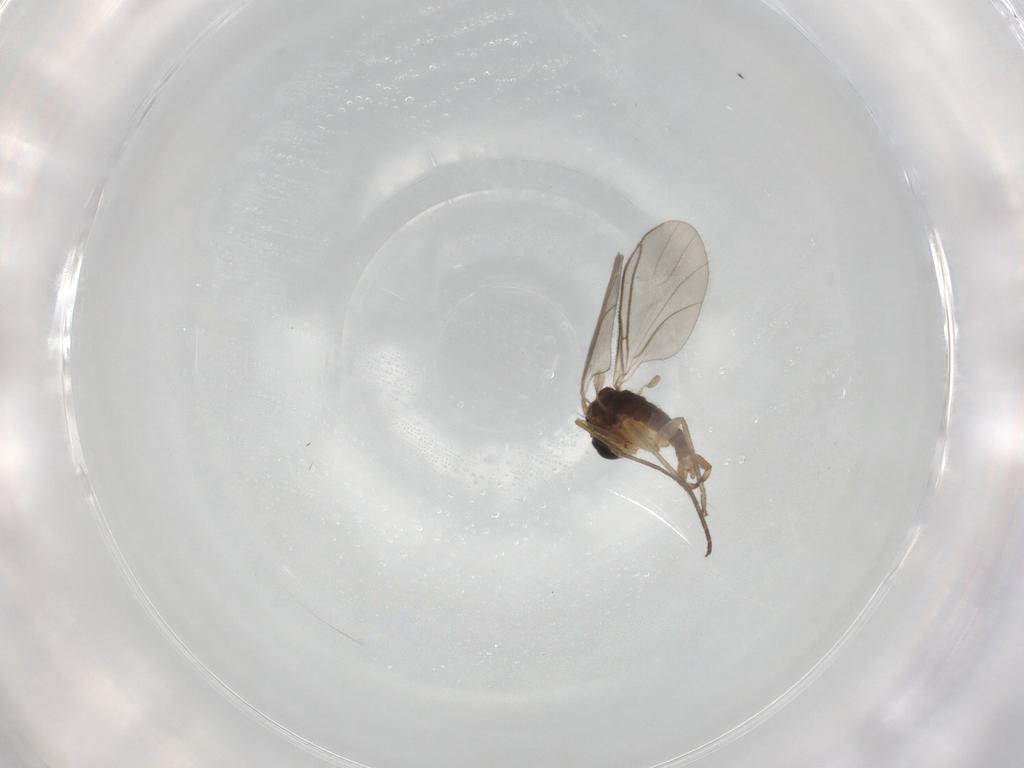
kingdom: Animalia
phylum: Arthropoda
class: Insecta
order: Diptera
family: Sciaridae
